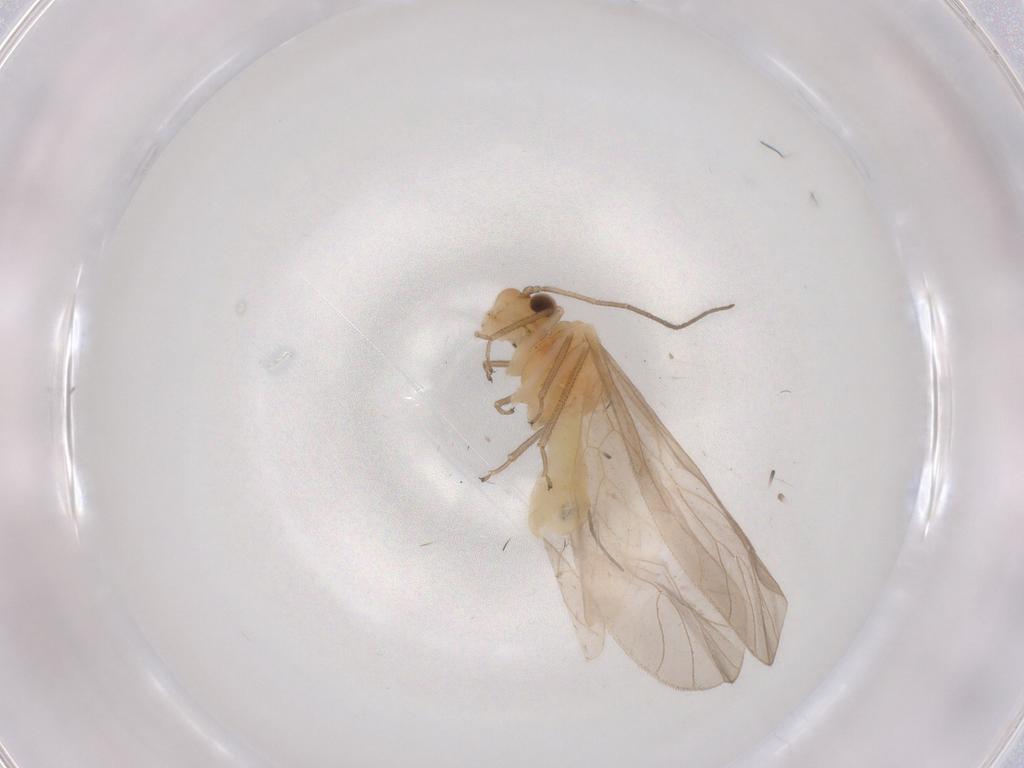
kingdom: Animalia
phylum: Arthropoda
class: Insecta
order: Psocodea
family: Caeciliusidae
